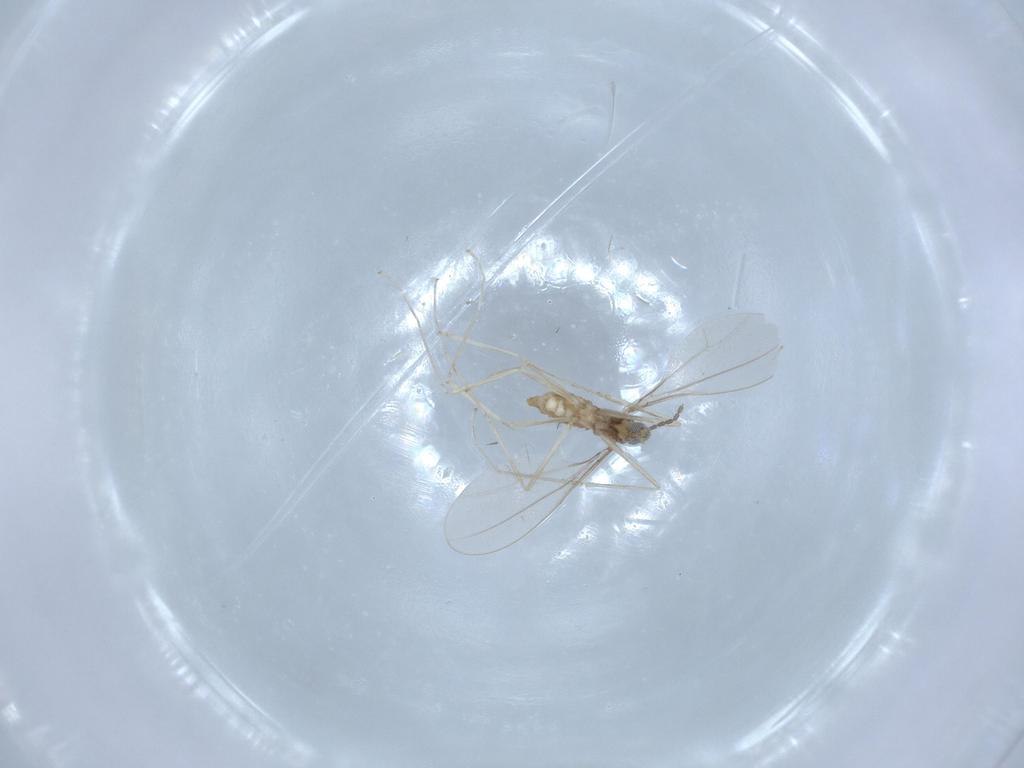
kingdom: Animalia
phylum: Arthropoda
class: Insecta
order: Diptera
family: Cecidomyiidae
